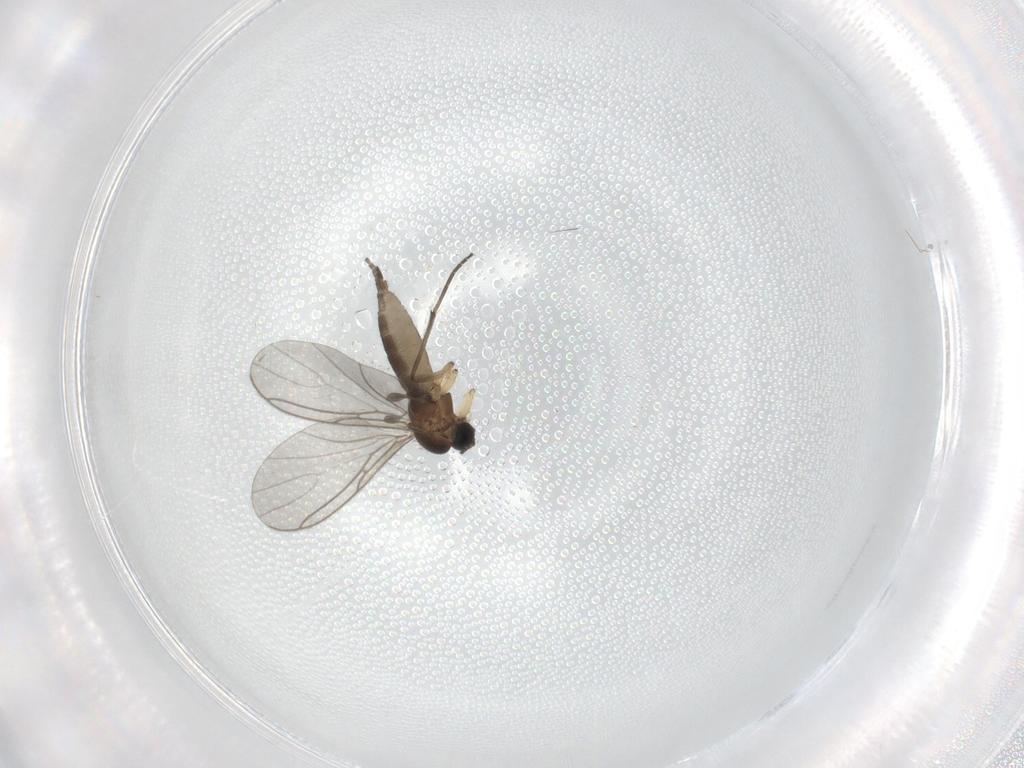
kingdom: Animalia
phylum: Arthropoda
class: Insecta
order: Diptera
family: Sciaridae
